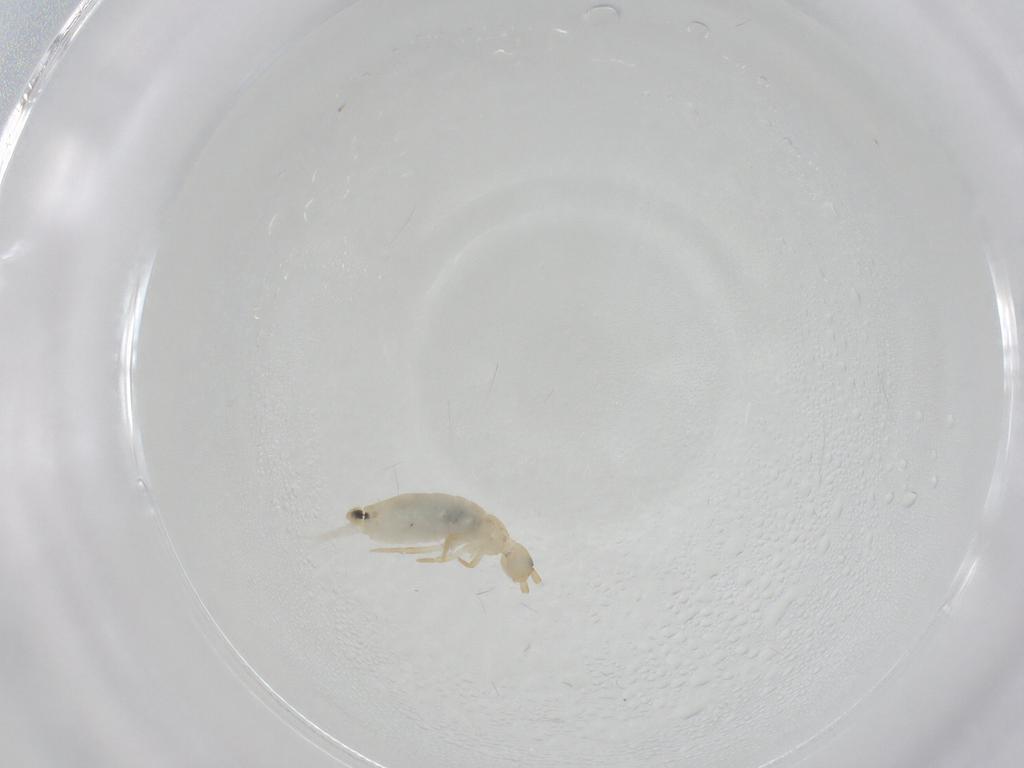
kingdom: Animalia
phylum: Arthropoda
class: Collembola
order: Entomobryomorpha
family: Entomobryidae
